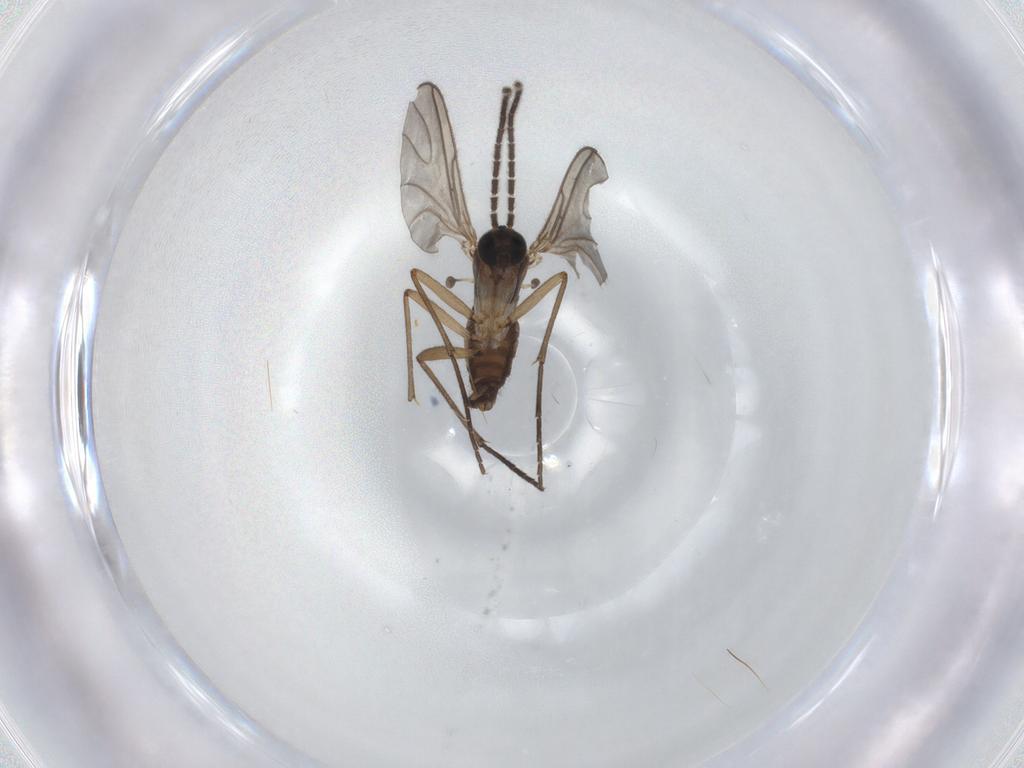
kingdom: Animalia
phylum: Arthropoda
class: Insecta
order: Diptera
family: Sciaridae
